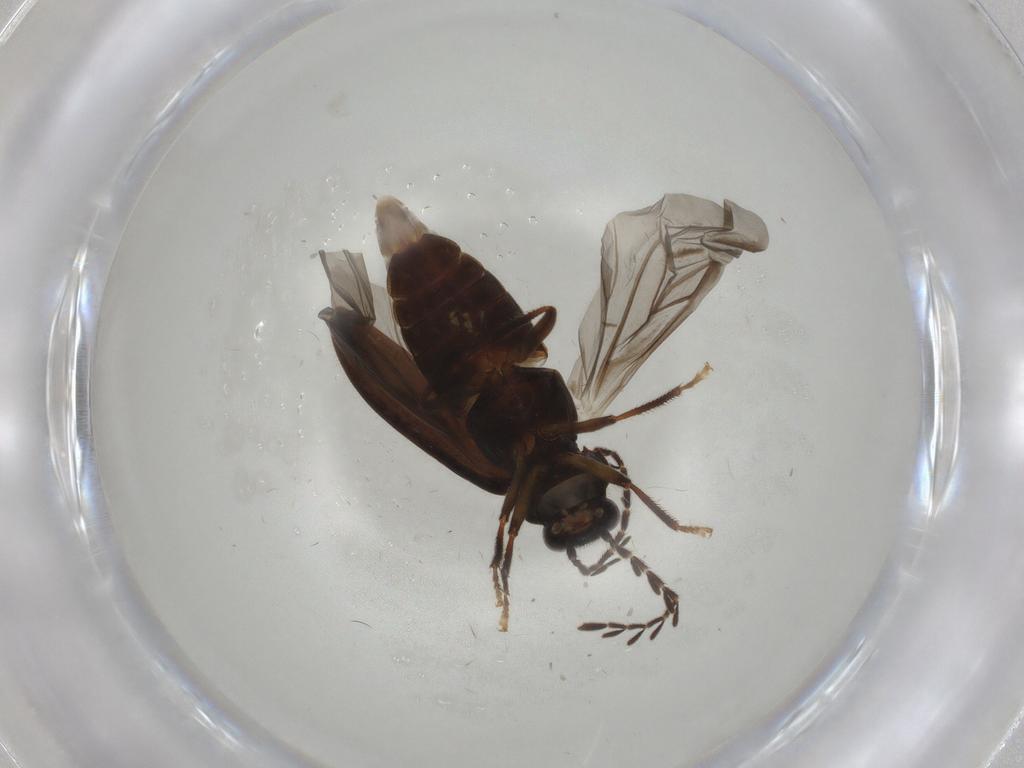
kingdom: Animalia
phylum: Arthropoda
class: Insecta
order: Coleoptera
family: Ptilodactylidae
